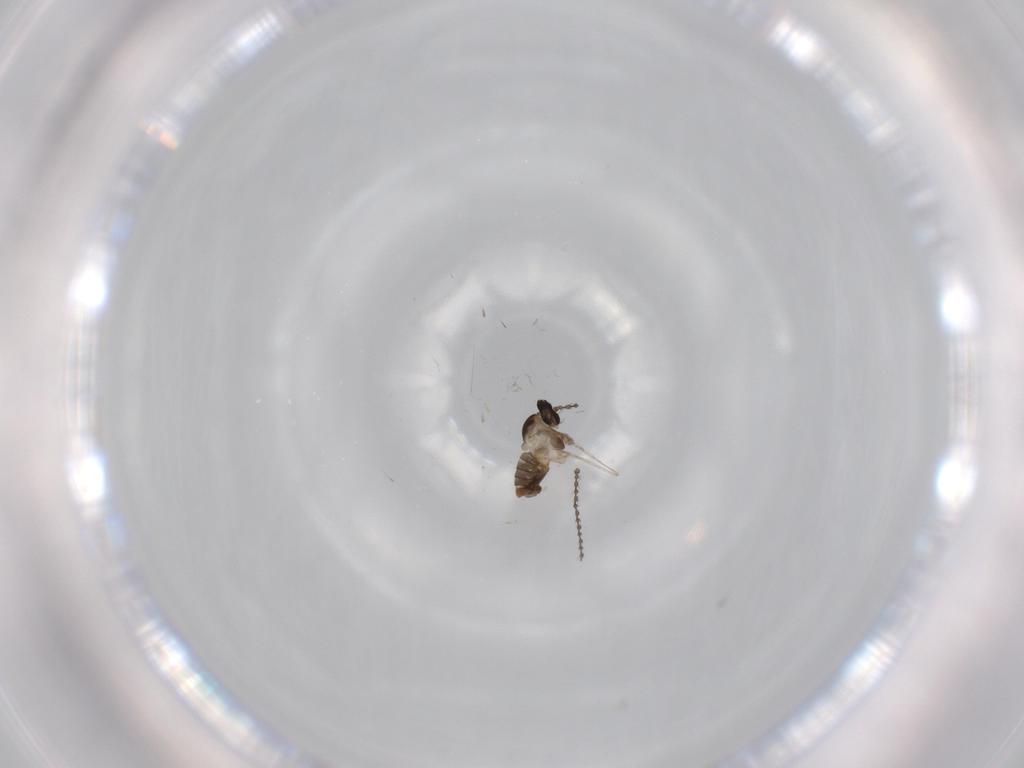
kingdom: Animalia
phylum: Arthropoda
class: Insecta
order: Diptera
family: Cecidomyiidae
